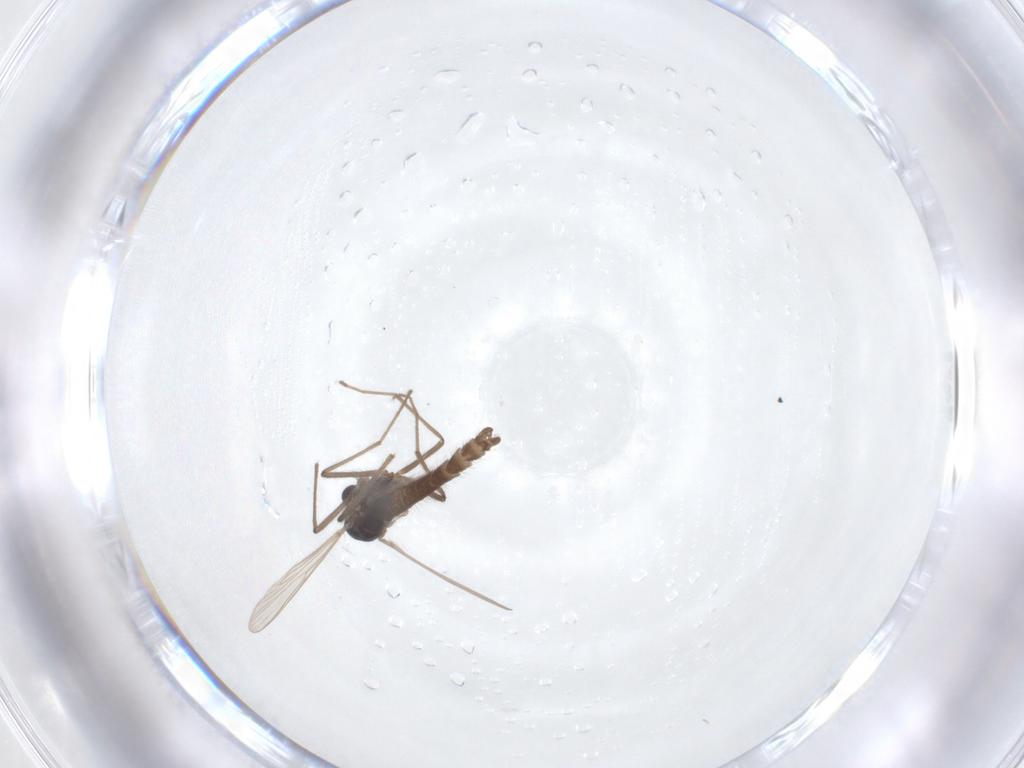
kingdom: Animalia
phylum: Arthropoda
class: Insecta
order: Diptera
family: Chironomidae
